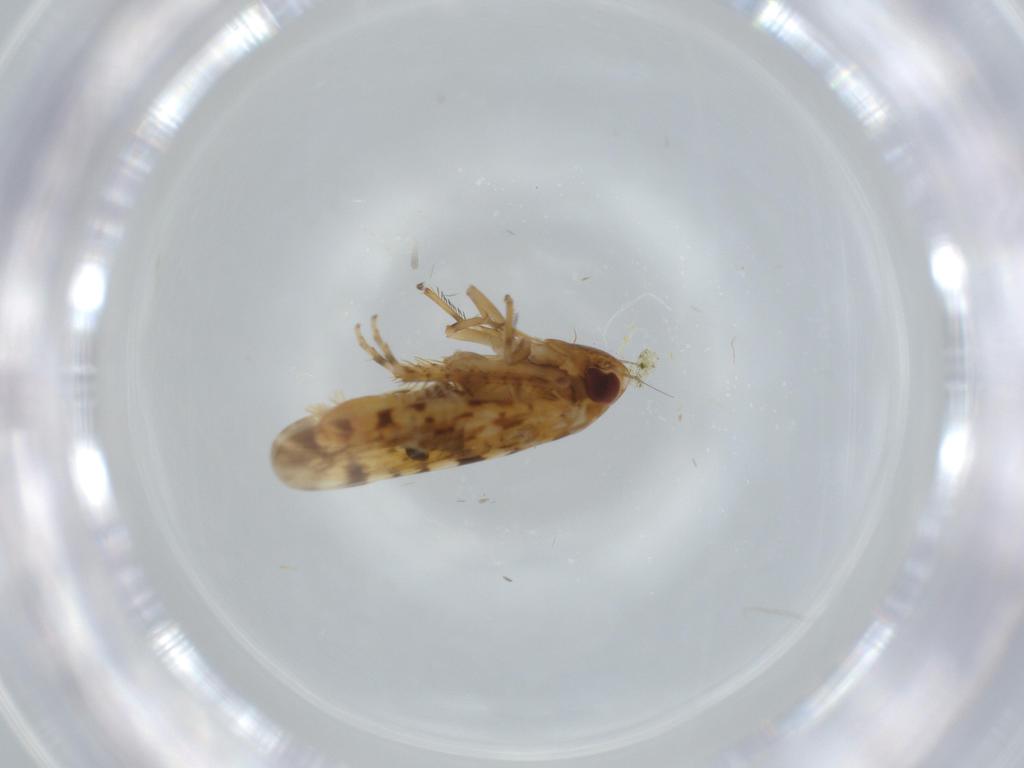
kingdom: Animalia
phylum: Arthropoda
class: Insecta
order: Hemiptera
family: Cicadellidae
